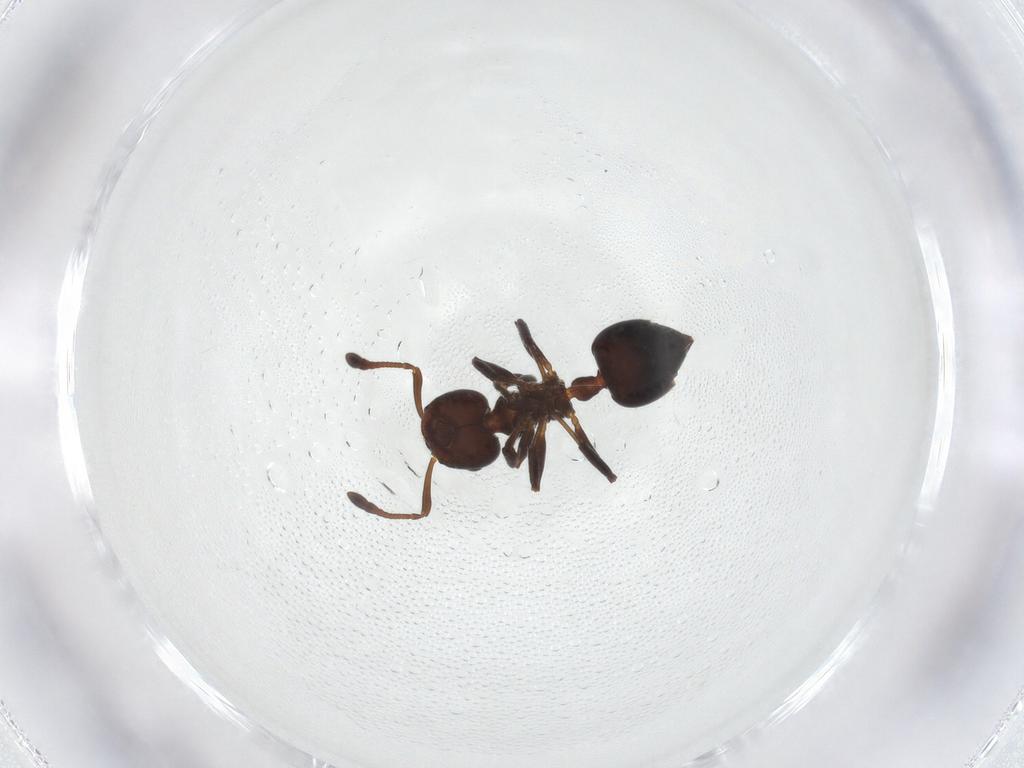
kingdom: Animalia
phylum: Arthropoda
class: Insecta
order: Hymenoptera
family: Formicidae
